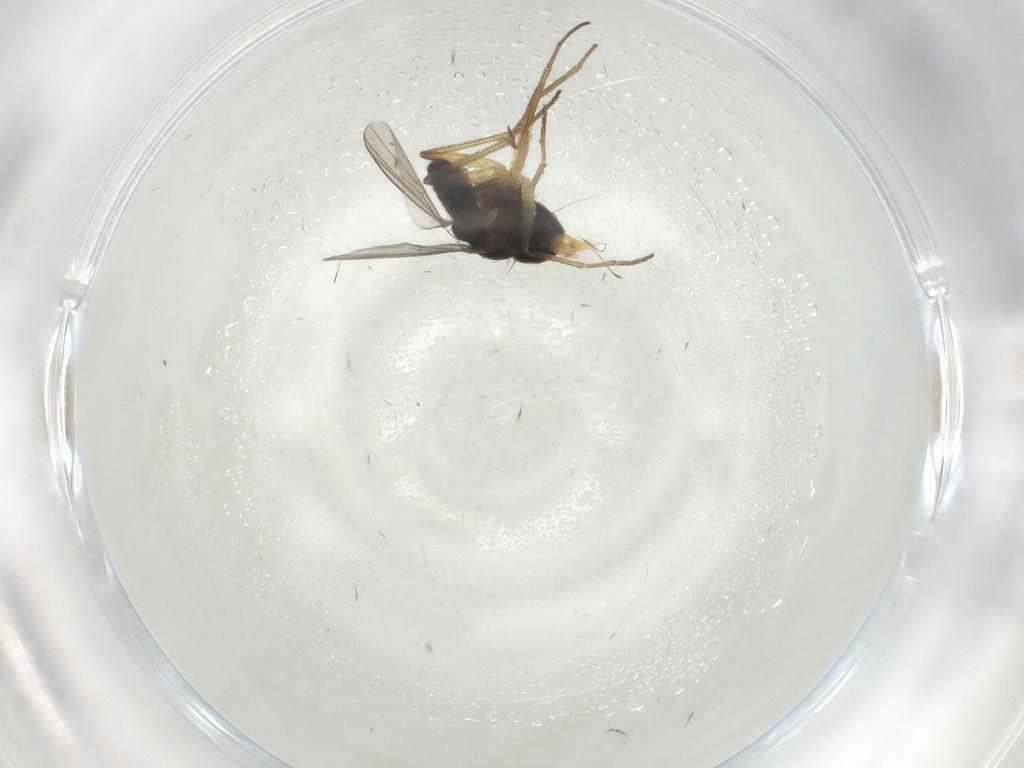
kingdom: Animalia
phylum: Arthropoda
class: Insecta
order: Diptera
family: Dolichopodidae
